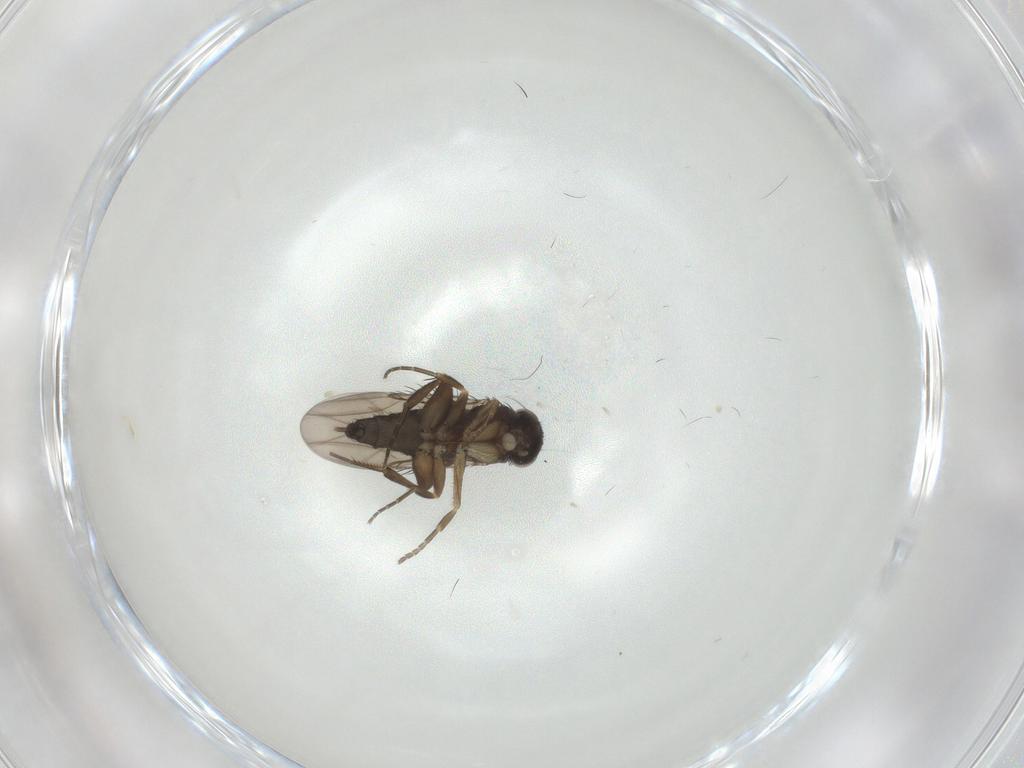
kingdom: Animalia
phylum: Arthropoda
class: Insecta
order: Diptera
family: Phoridae
